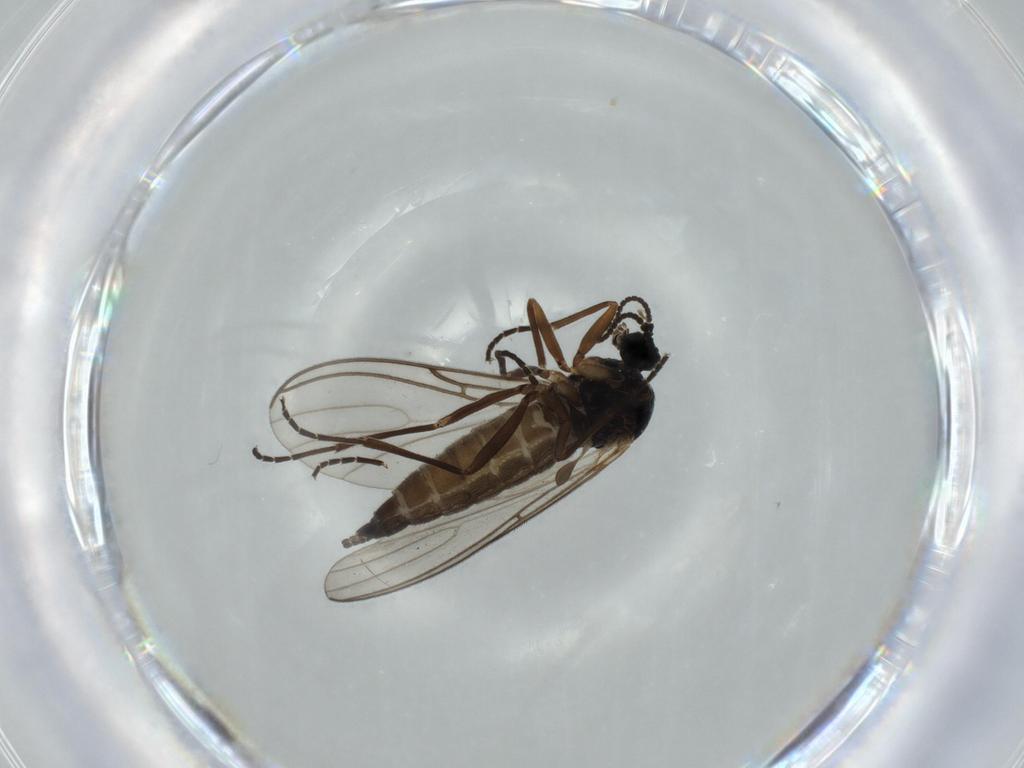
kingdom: Animalia
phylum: Arthropoda
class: Insecta
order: Diptera
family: Sciaridae
